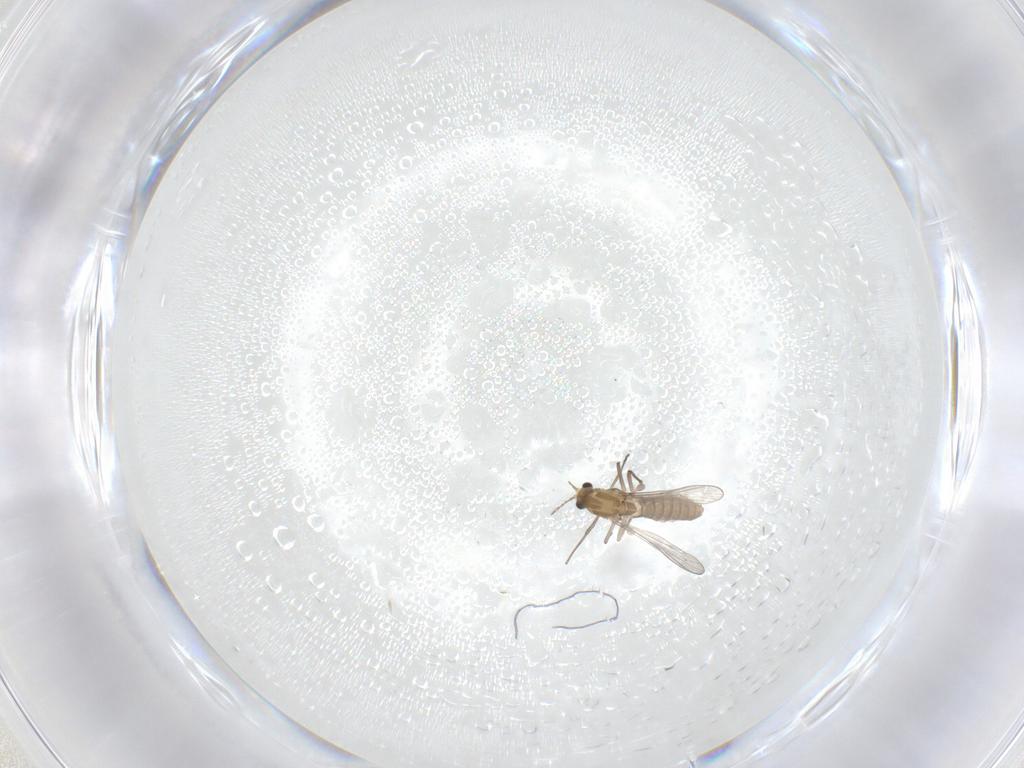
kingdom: Animalia
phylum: Arthropoda
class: Insecta
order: Diptera
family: Chironomidae
